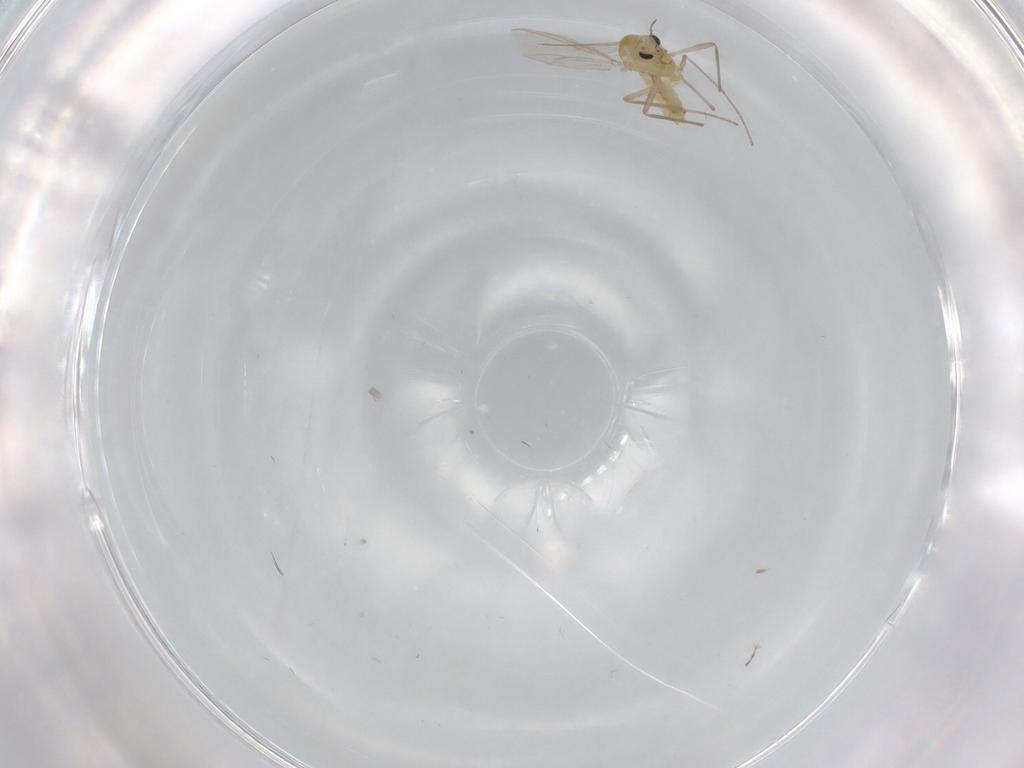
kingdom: Animalia
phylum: Arthropoda
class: Insecta
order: Diptera
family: Chironomidae
